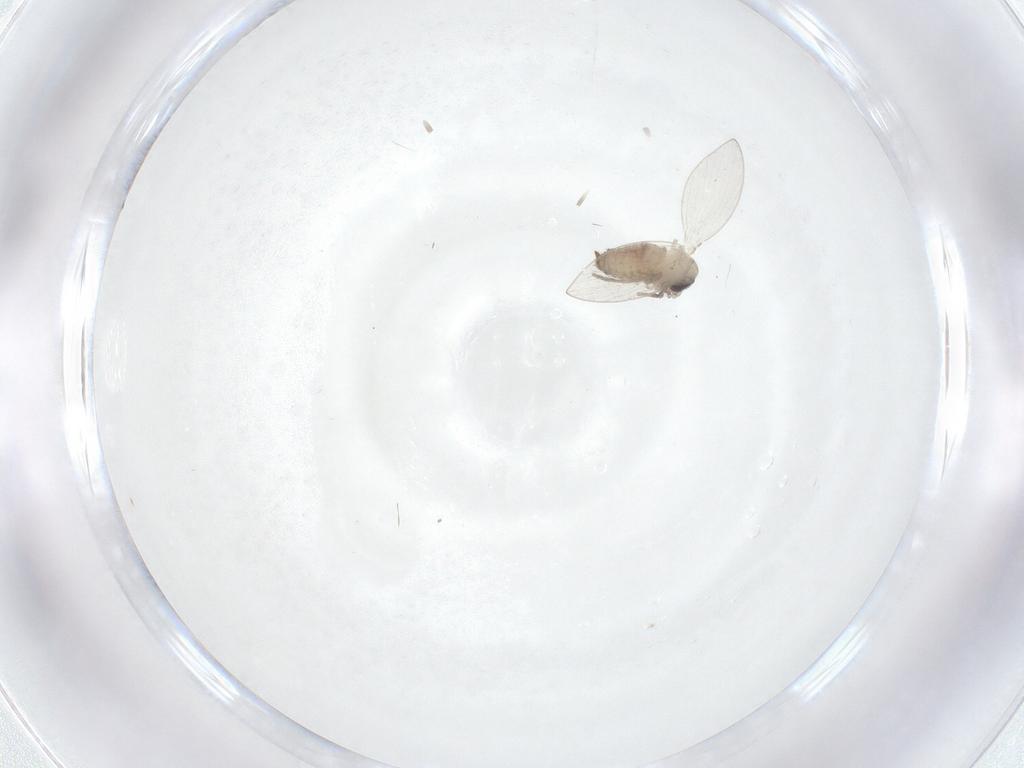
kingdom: Animalia
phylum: Arthropoda
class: Insecta
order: Diptera
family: Psychodidae
